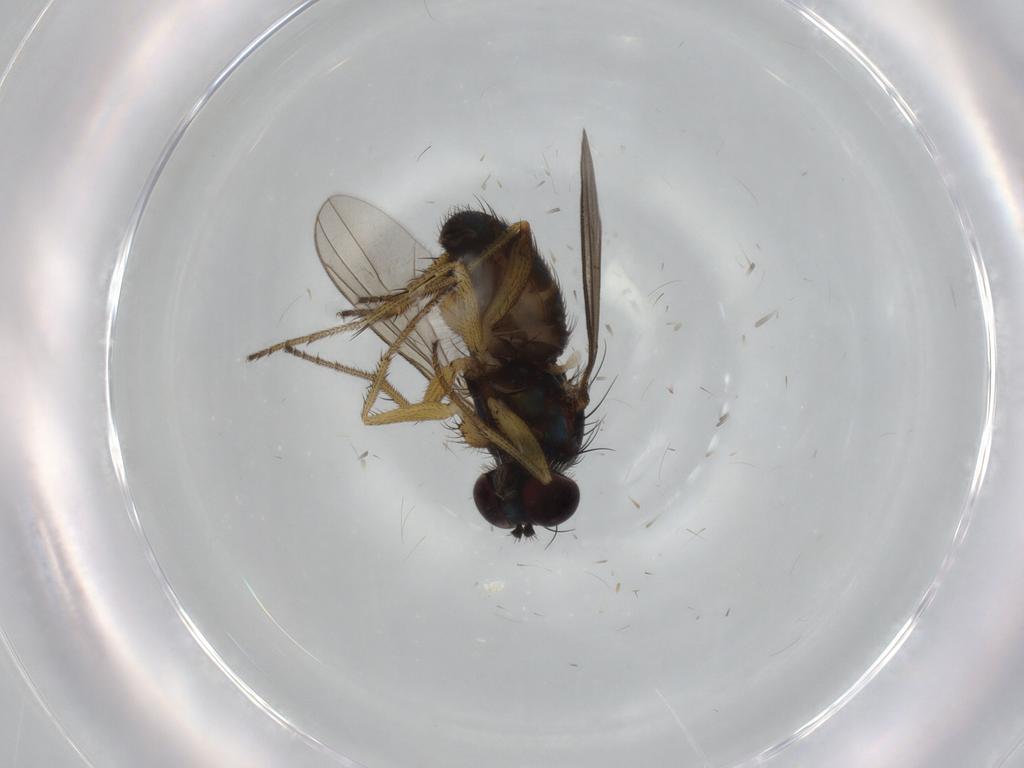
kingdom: Animalia
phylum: Arthropoda
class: Insecta
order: Diptera
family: Dolichopodidae
